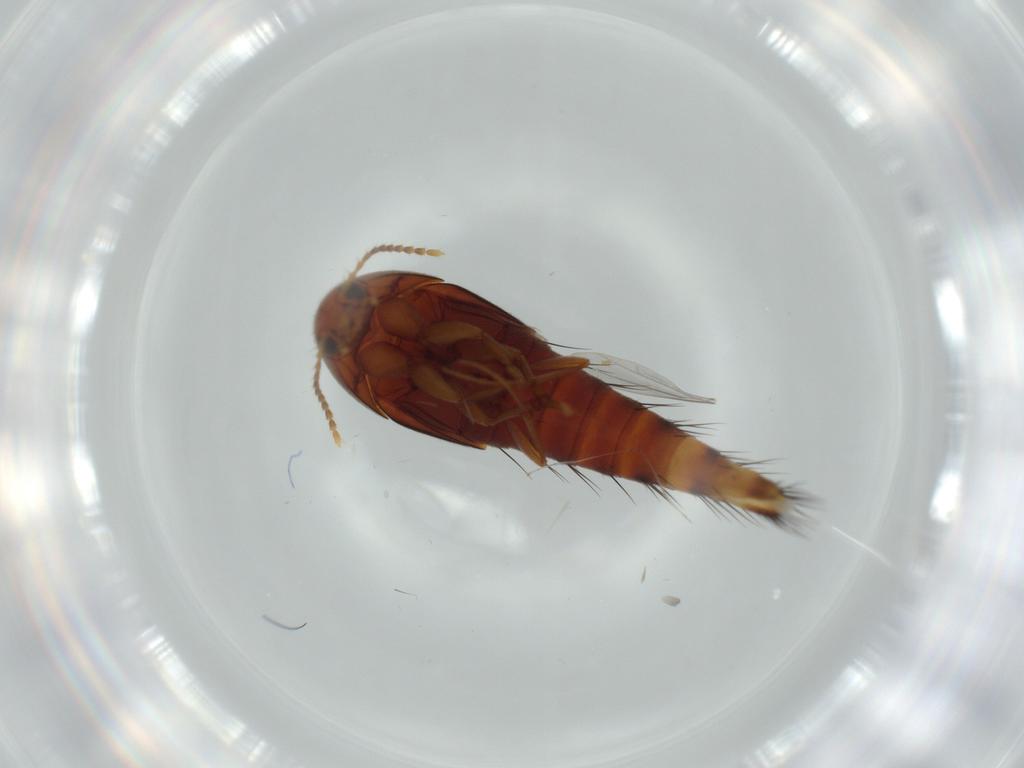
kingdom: Animalia
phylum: Arthropoda
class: Insecta
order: Coleoptera
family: Staphylinidae
